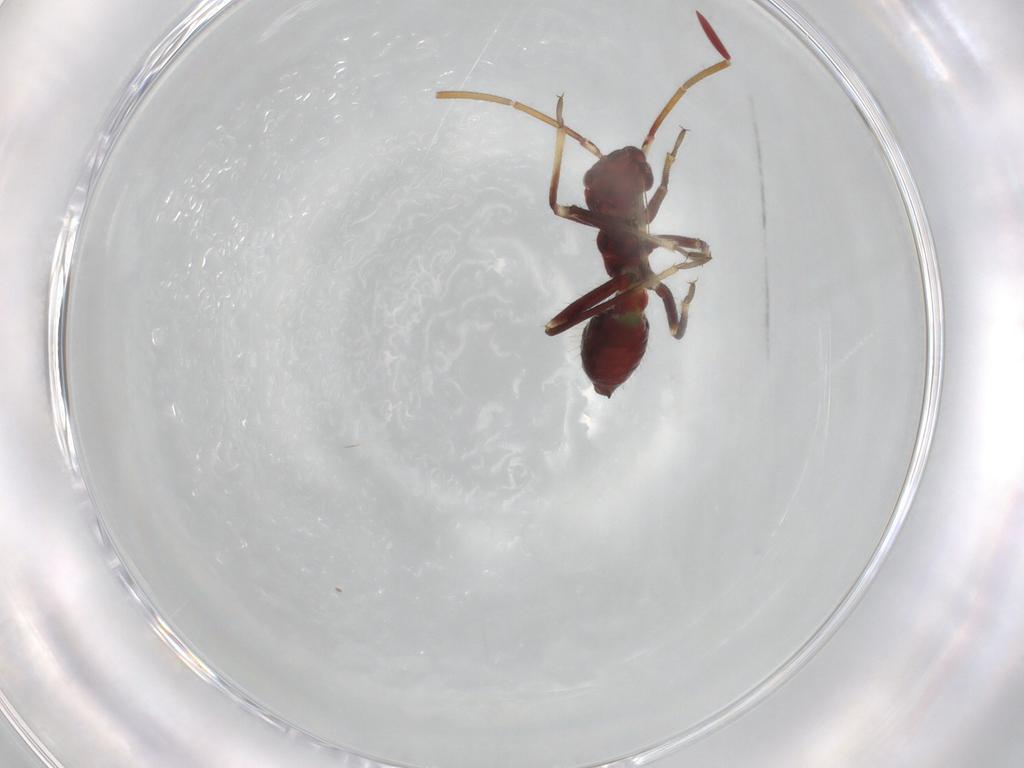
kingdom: Animalia
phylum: Arthropoda
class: Insecta
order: Hemiptera
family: Miridae
